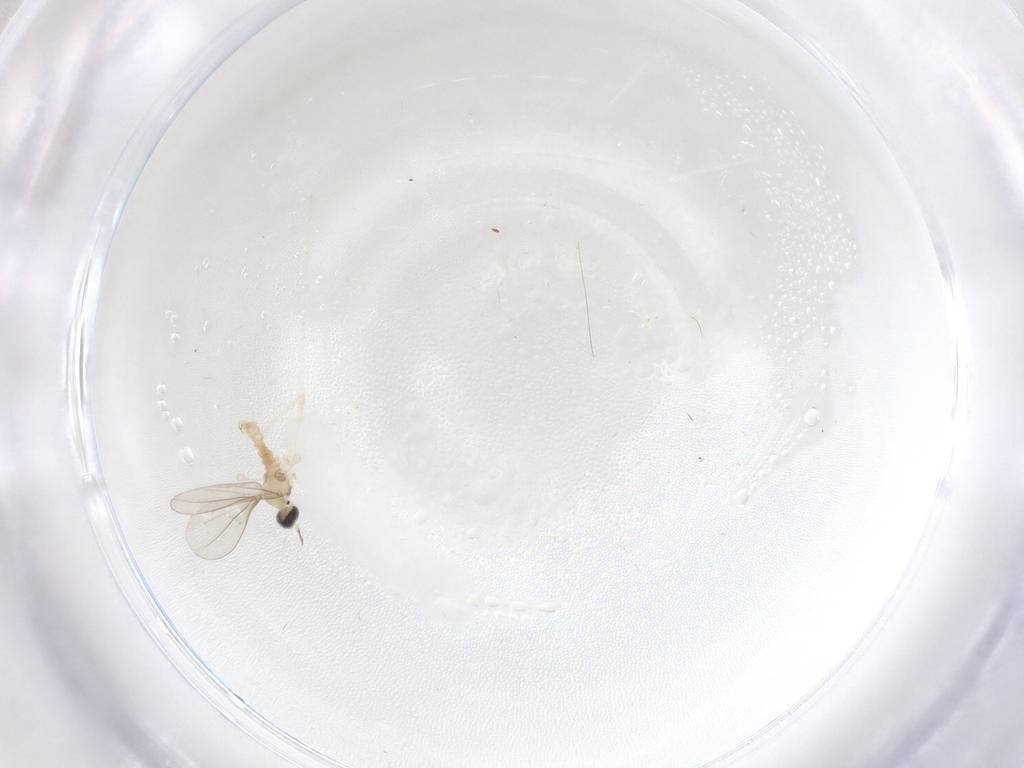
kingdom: Animalia
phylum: Arthropoda
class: Insecta
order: Diptera
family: Cecidomyiidae
